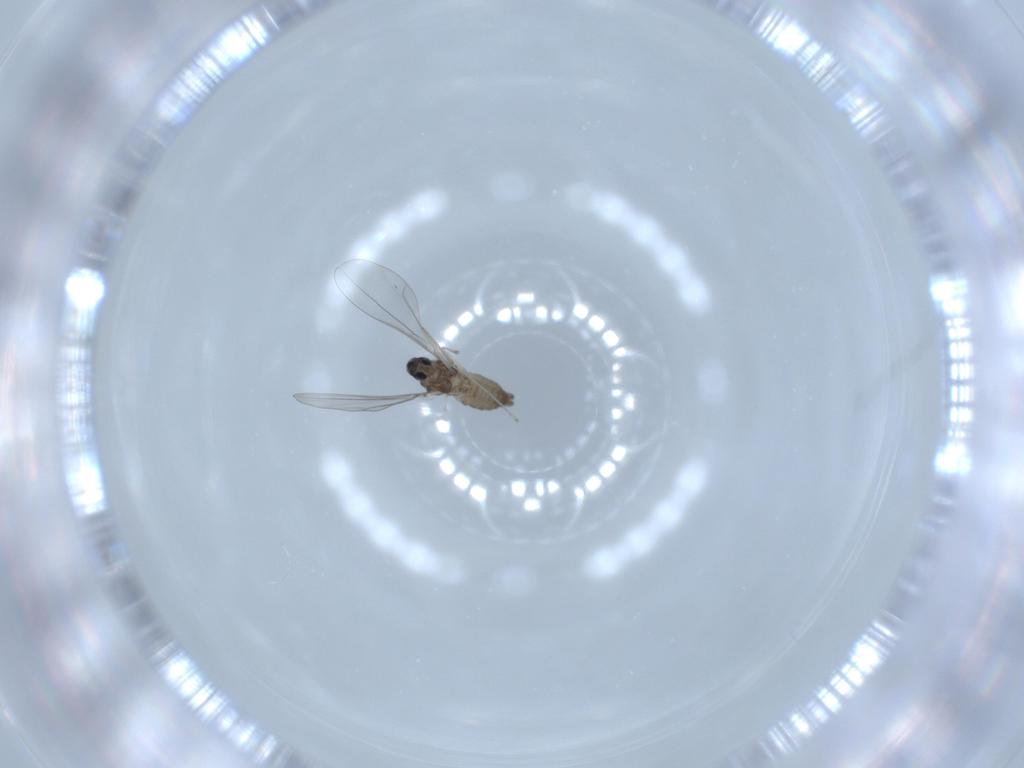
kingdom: Animalia
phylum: Arthropoda
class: Insecta
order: Diptera
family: Cecidomyiidae
